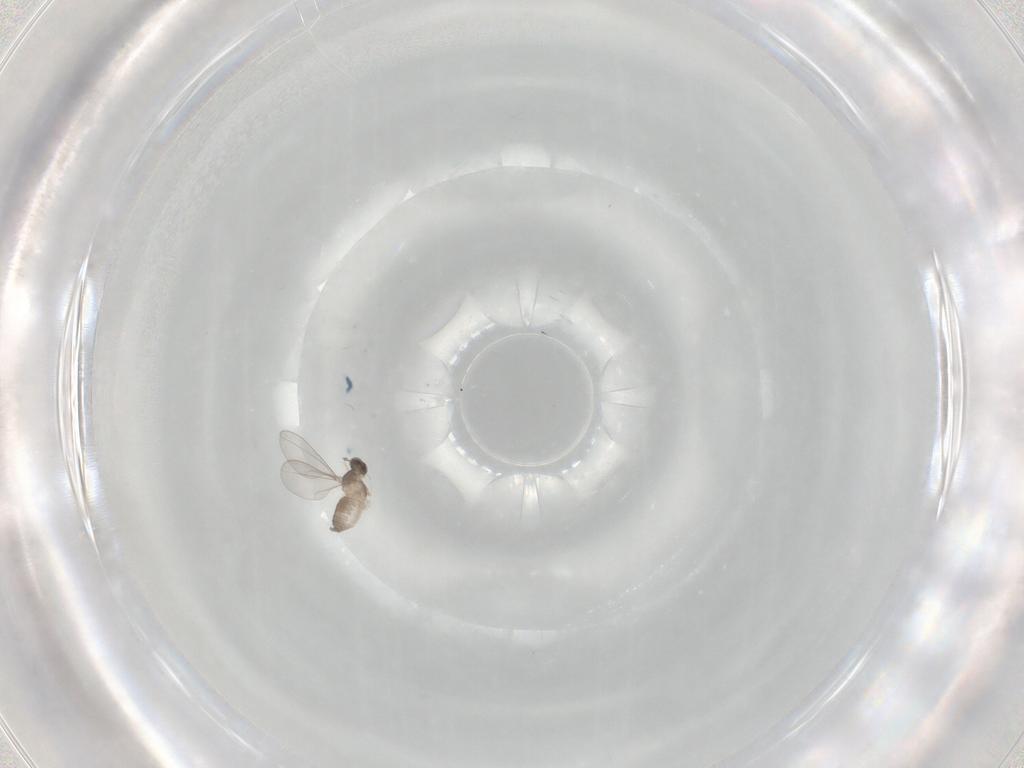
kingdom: Animalia
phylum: Arthropoda
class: Insecta
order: Diptera
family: Cecidomyiidae
